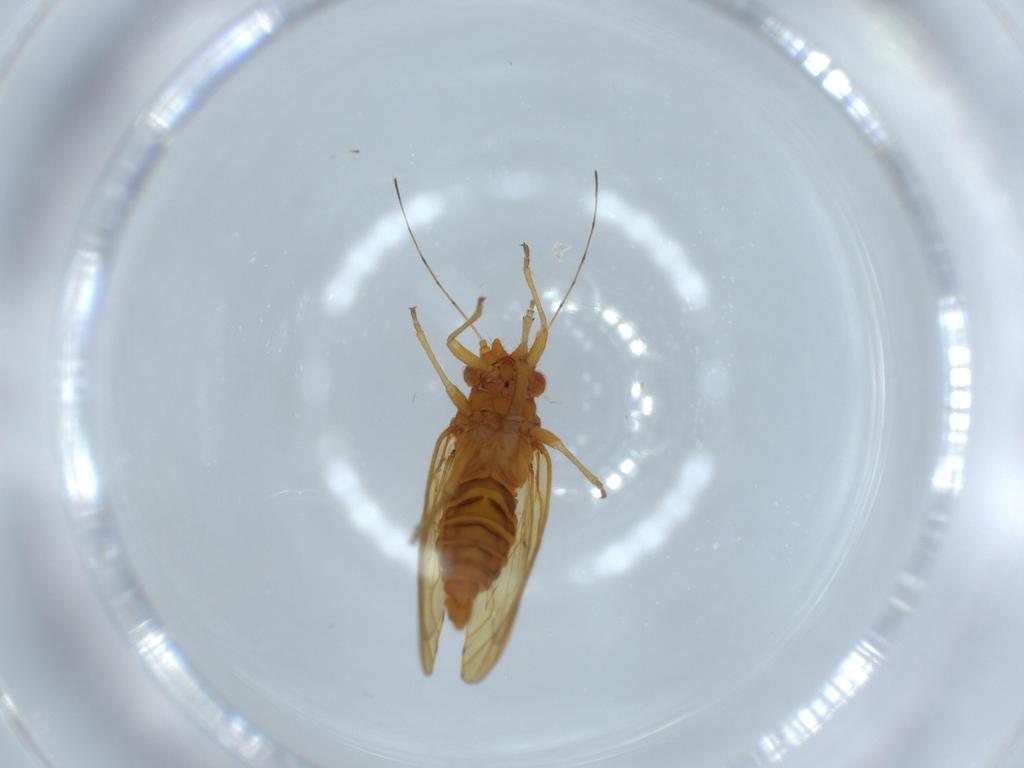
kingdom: Animalia
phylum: Arthropoda
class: Insecta
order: Hemiptera
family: Psylloidea_incertae_sedis
